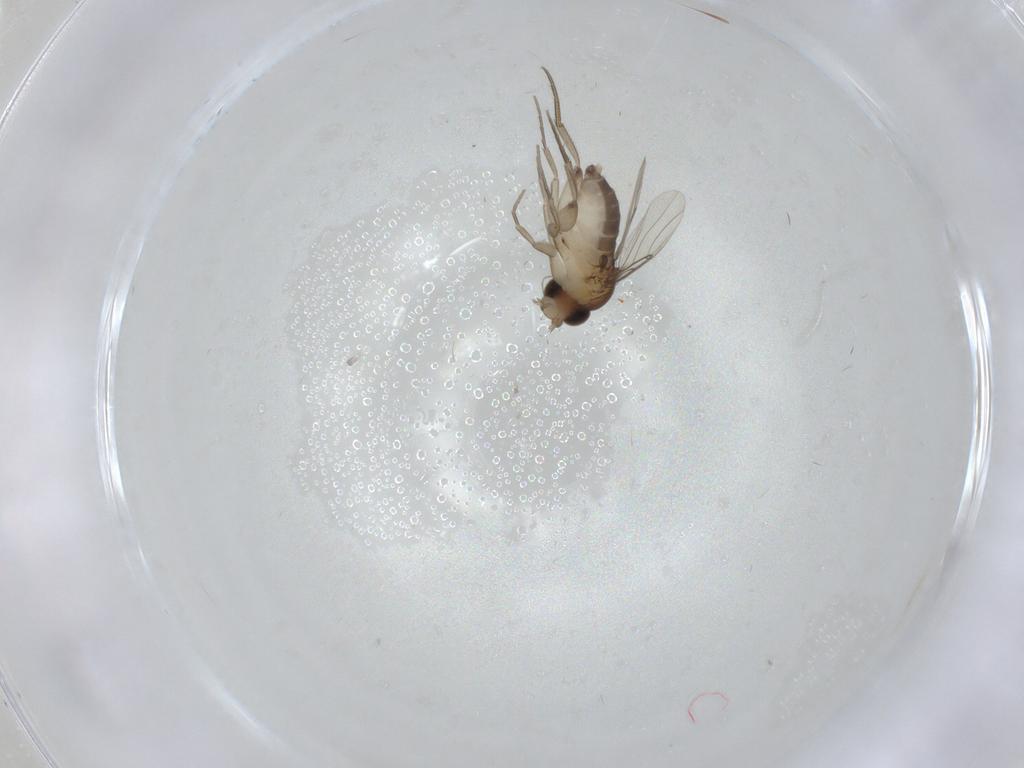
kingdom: Animalia
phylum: Arthropoda
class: Insecta
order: Diptera
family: Phoridae
